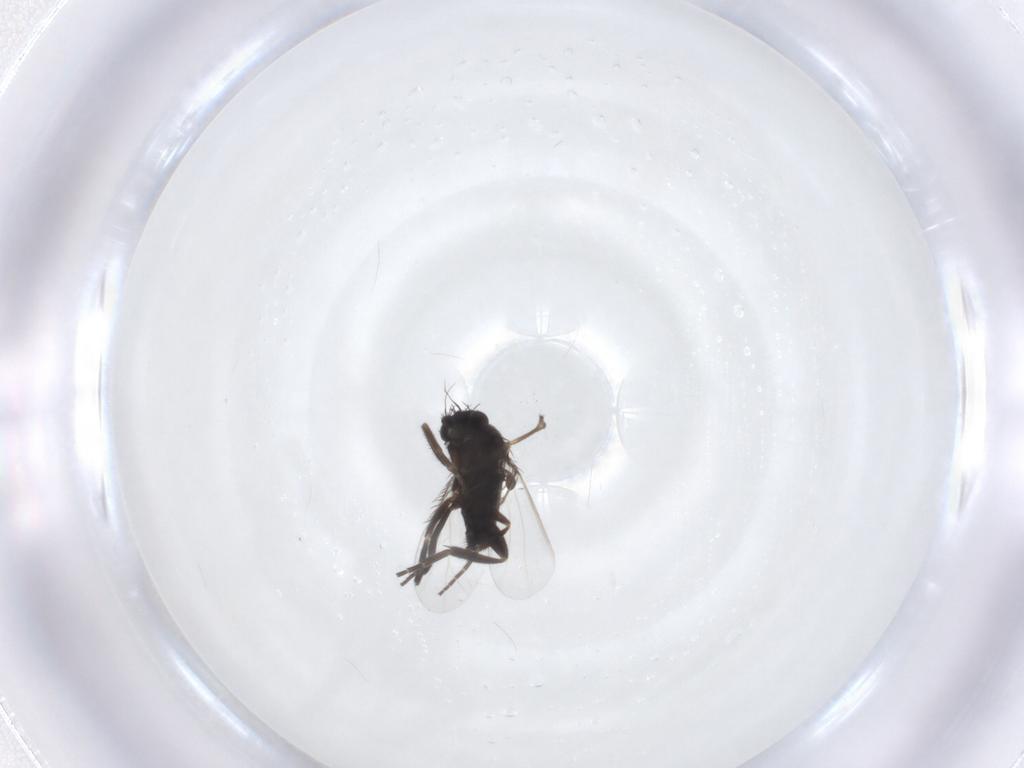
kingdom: Animalia
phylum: Arthropoda
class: Insecta
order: Diptera
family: Phoridae
